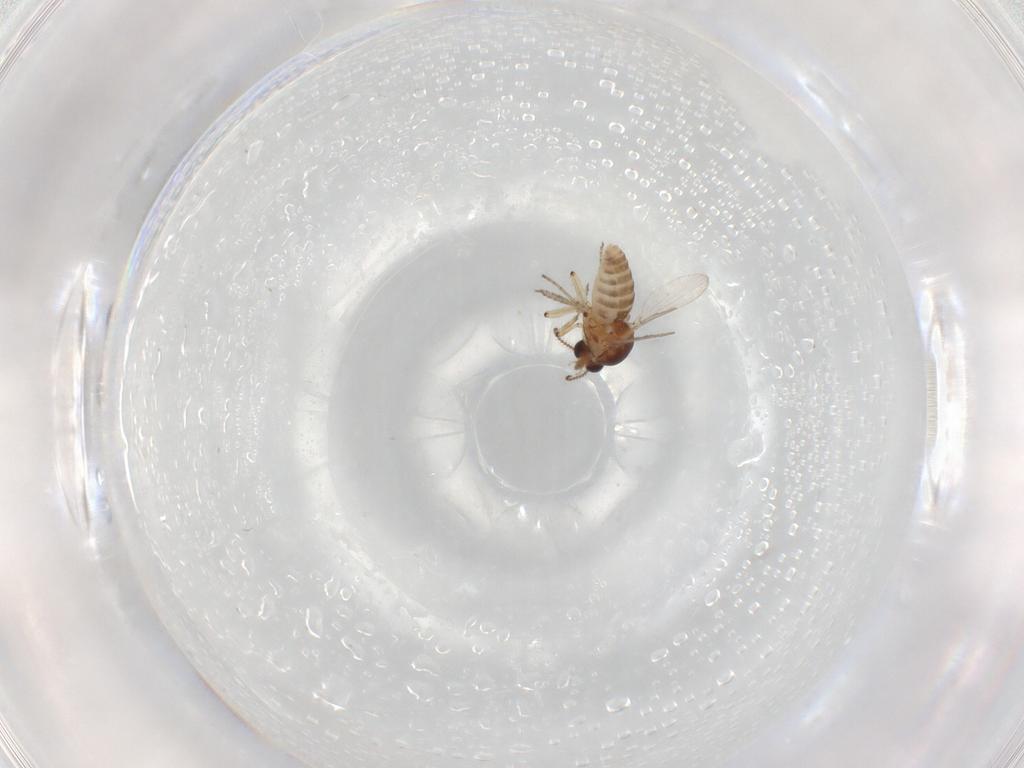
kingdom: Animalia
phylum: Arthropoda
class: Insecta
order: Diptera
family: Ceratopogonidae
